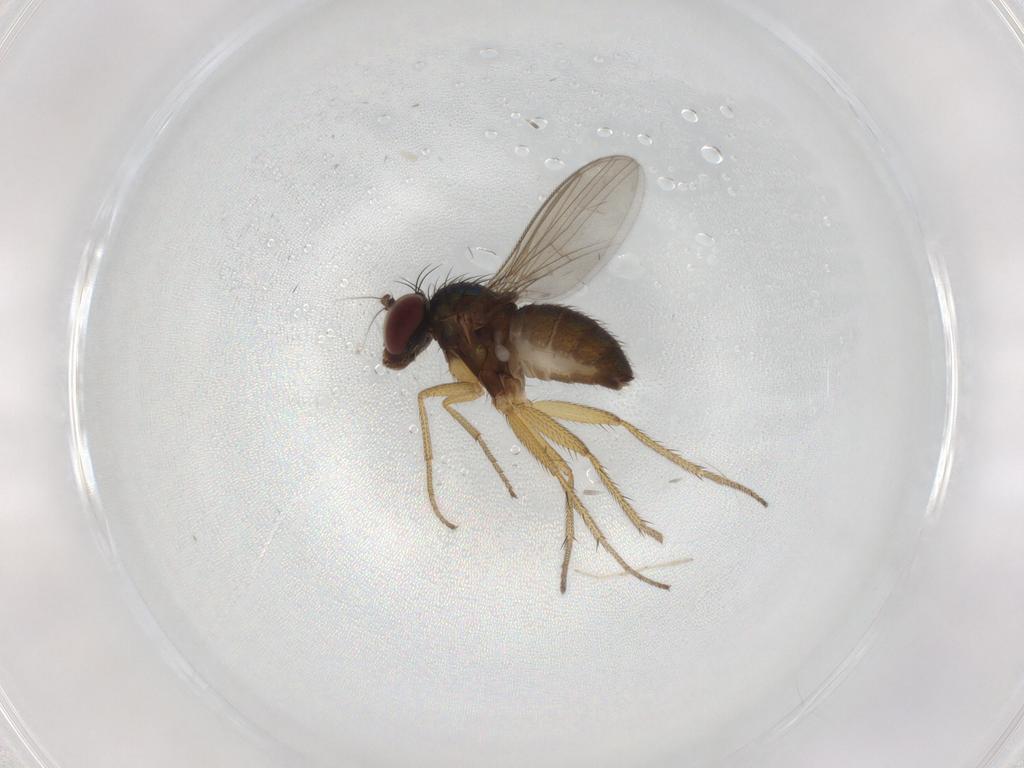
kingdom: Animalia
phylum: Arthropoda
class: Insecta
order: Diptera
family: Chironomidae
